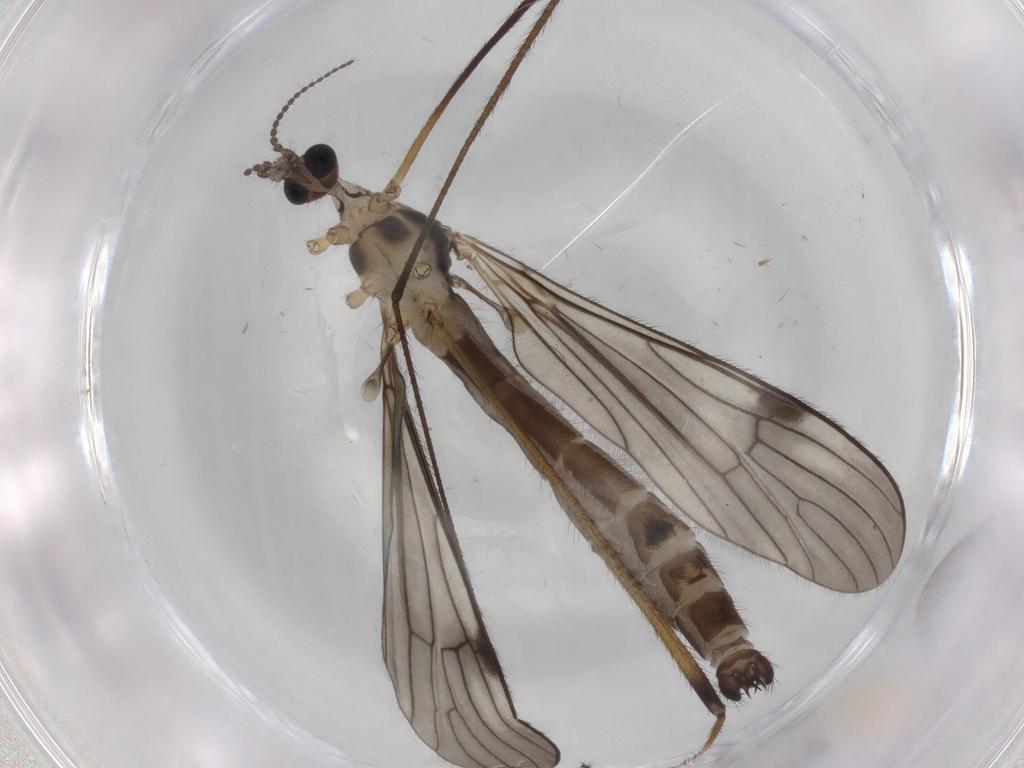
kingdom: Animalia
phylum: Arthropoda
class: Insecta
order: Diptera
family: Limoniidae
